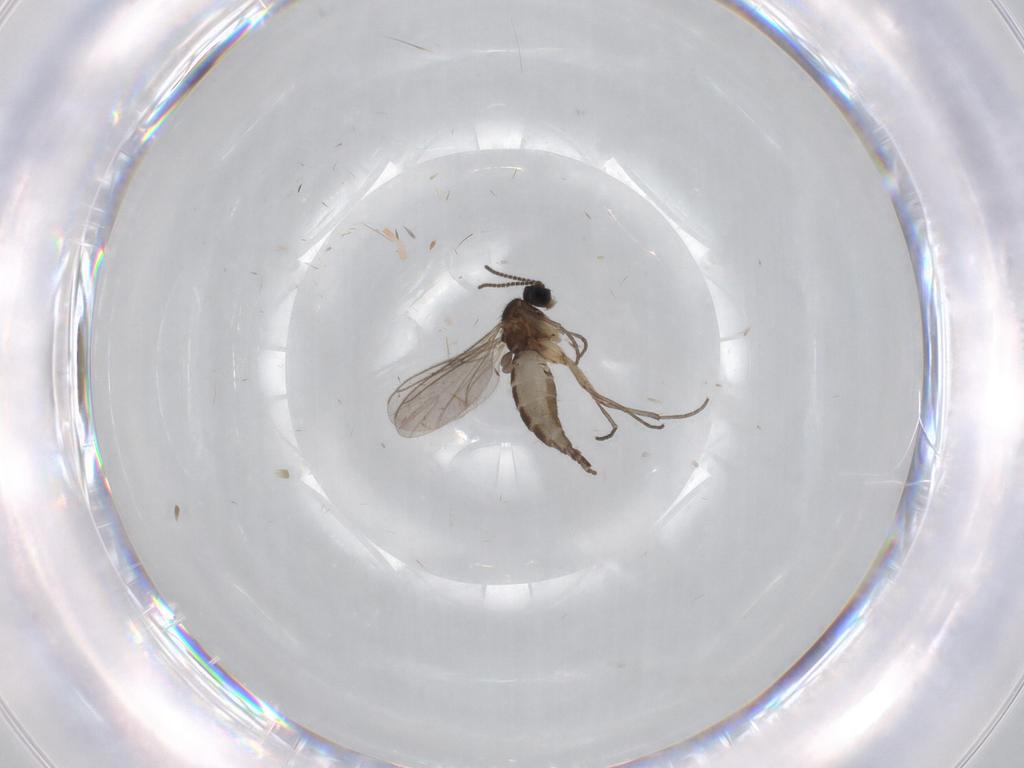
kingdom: Animalia
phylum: Arthropoda
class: Insecta
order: Diptera
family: Sciaridae
